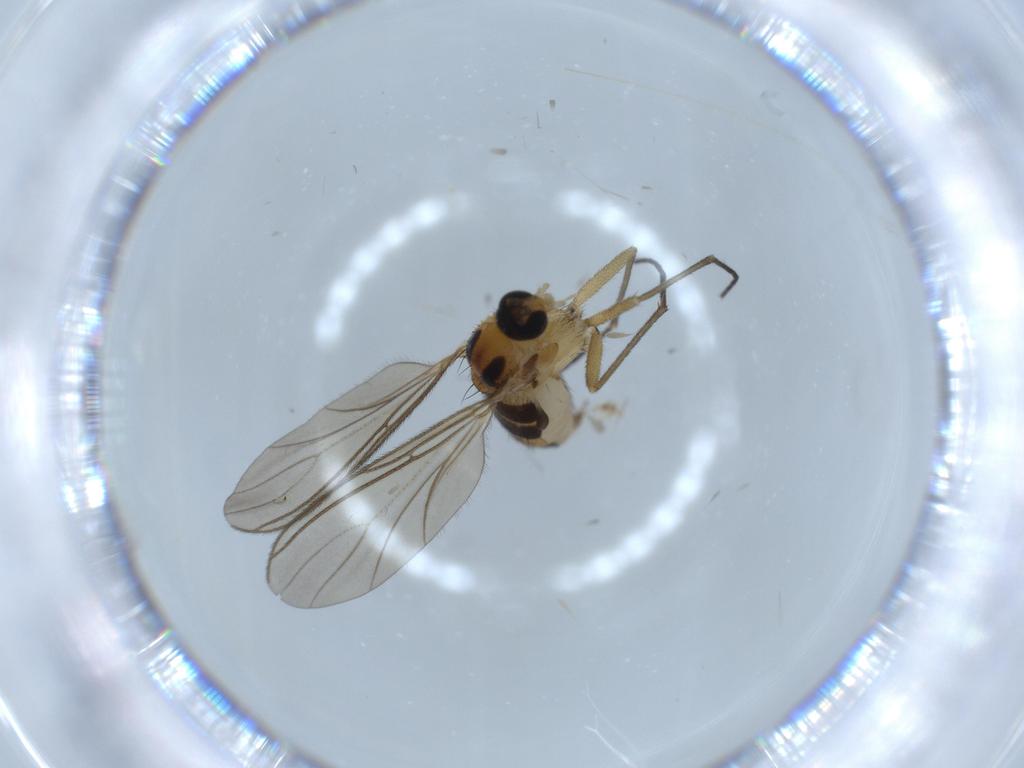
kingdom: Animalia
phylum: Arthropoda
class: Insecta
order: Diptera
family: Sciaridae
